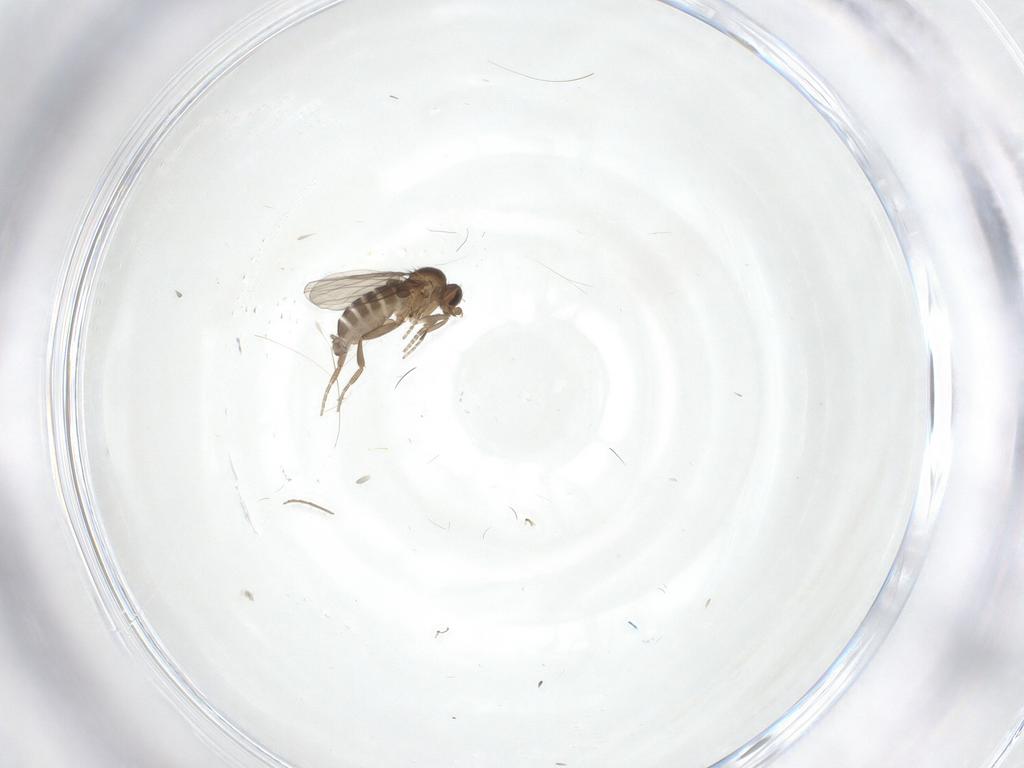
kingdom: Animalia
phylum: Arthropoda
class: Insecta
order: Diptera
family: Phoridae
